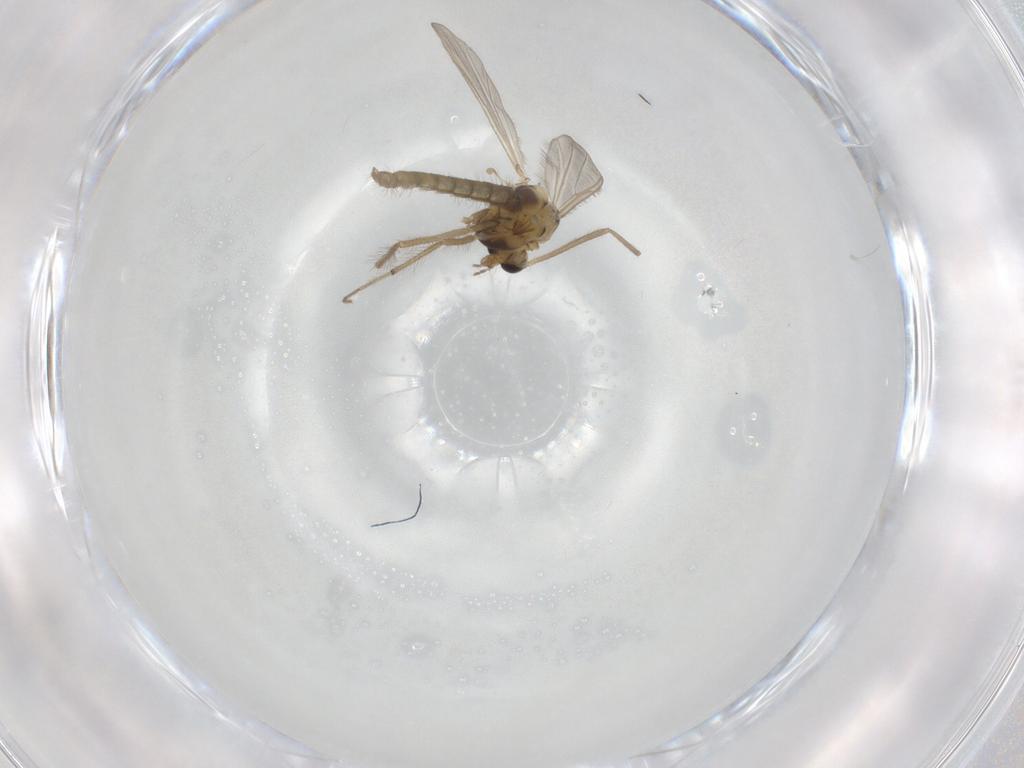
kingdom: Animalia
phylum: Arthropoda
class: Insecta
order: Diptera
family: Chironomidae
